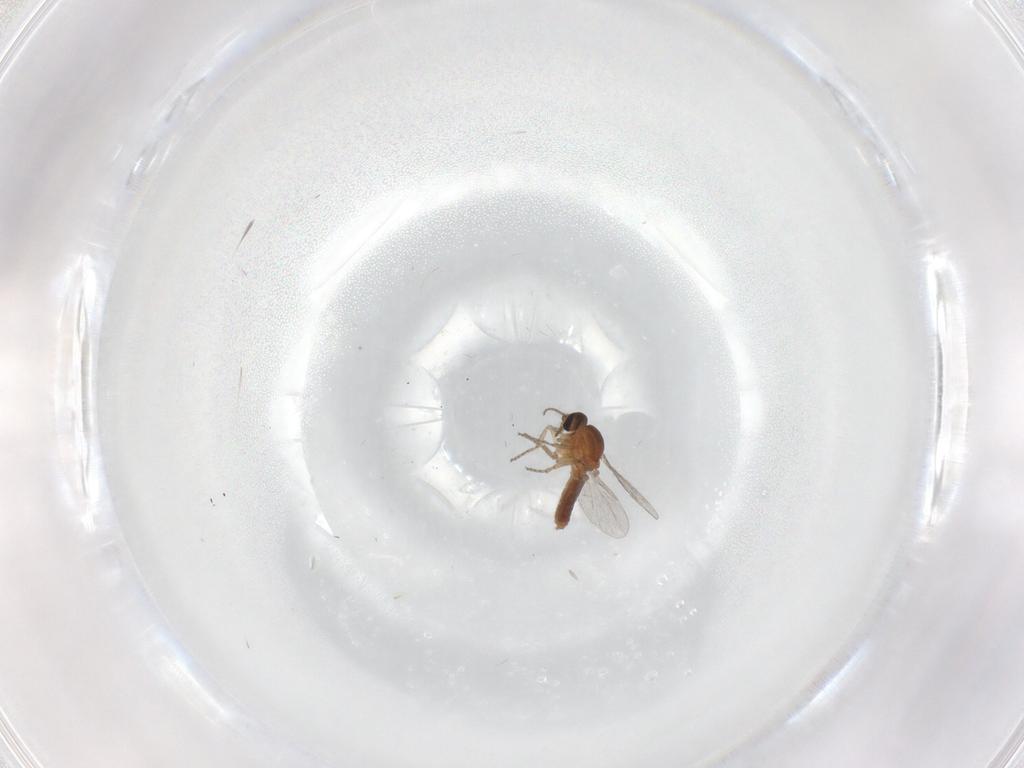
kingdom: Animalia
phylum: Arthropoda
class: Insecta
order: Diptera
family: Ceratopogonidae
